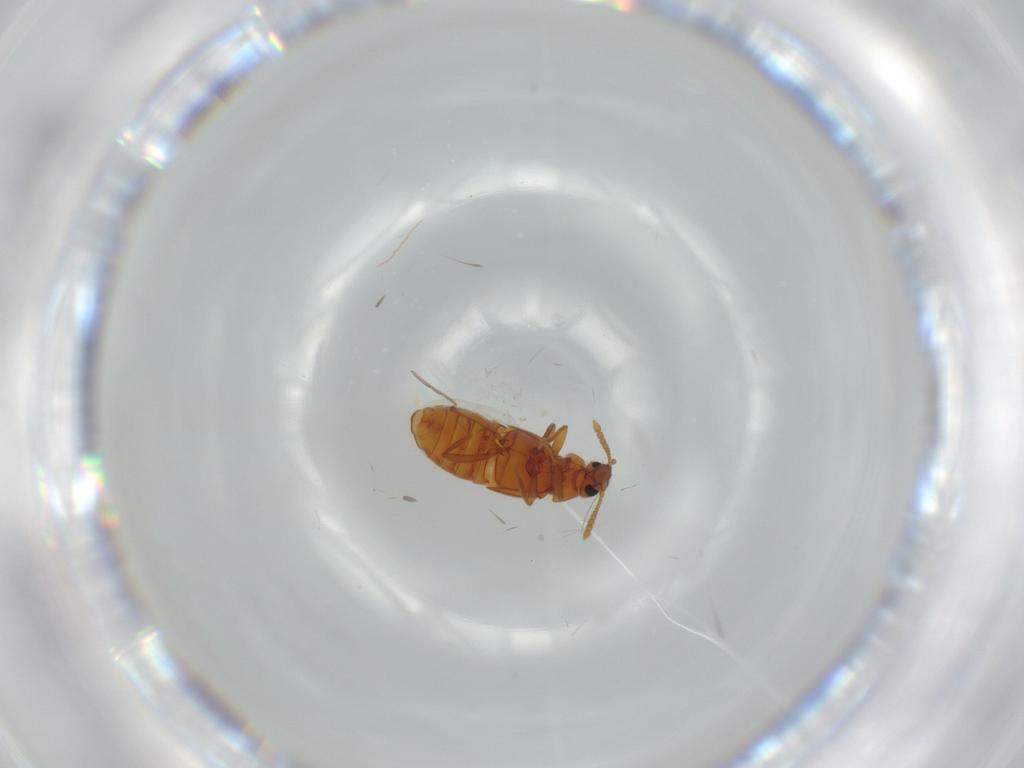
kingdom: Animalia
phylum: Arthropoda
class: Insecta
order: Coleoptera
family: Staphylinidae
